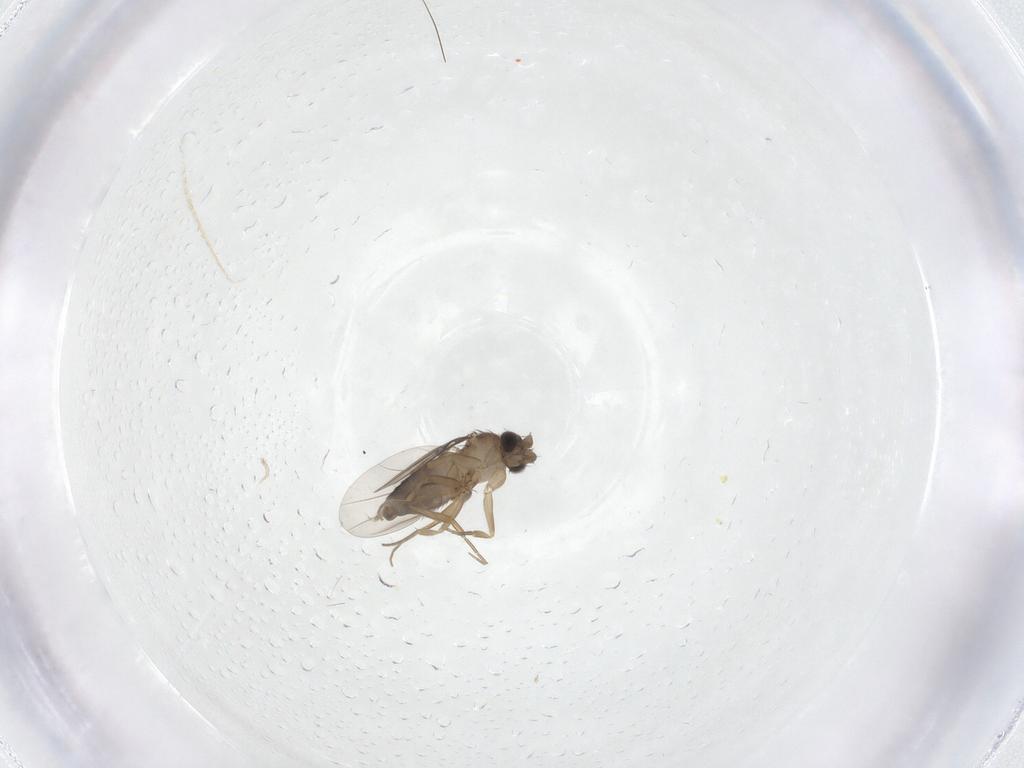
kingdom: Animalia
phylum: Arthropoda
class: Insecta
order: Diptera
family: Phoridae
